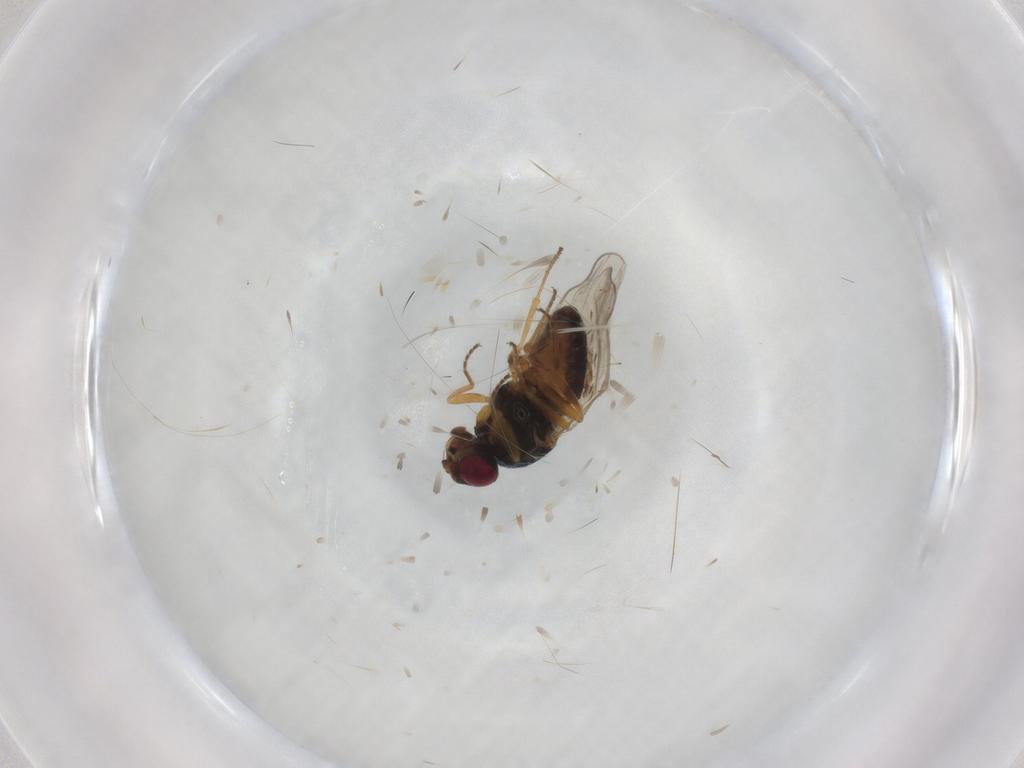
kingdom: Animalia
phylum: Arthropoda
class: Insecta
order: Diptera
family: Chloropidae
